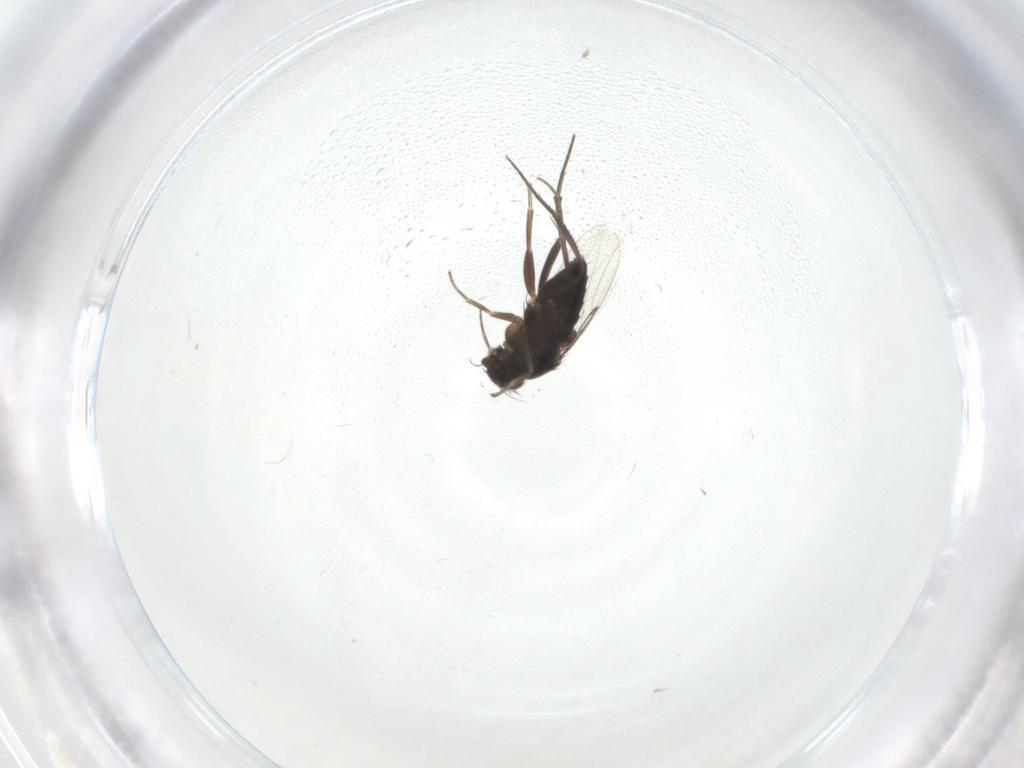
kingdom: Animalia
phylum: Arthropoda
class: Insecta
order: Diptera
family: Phoridae
